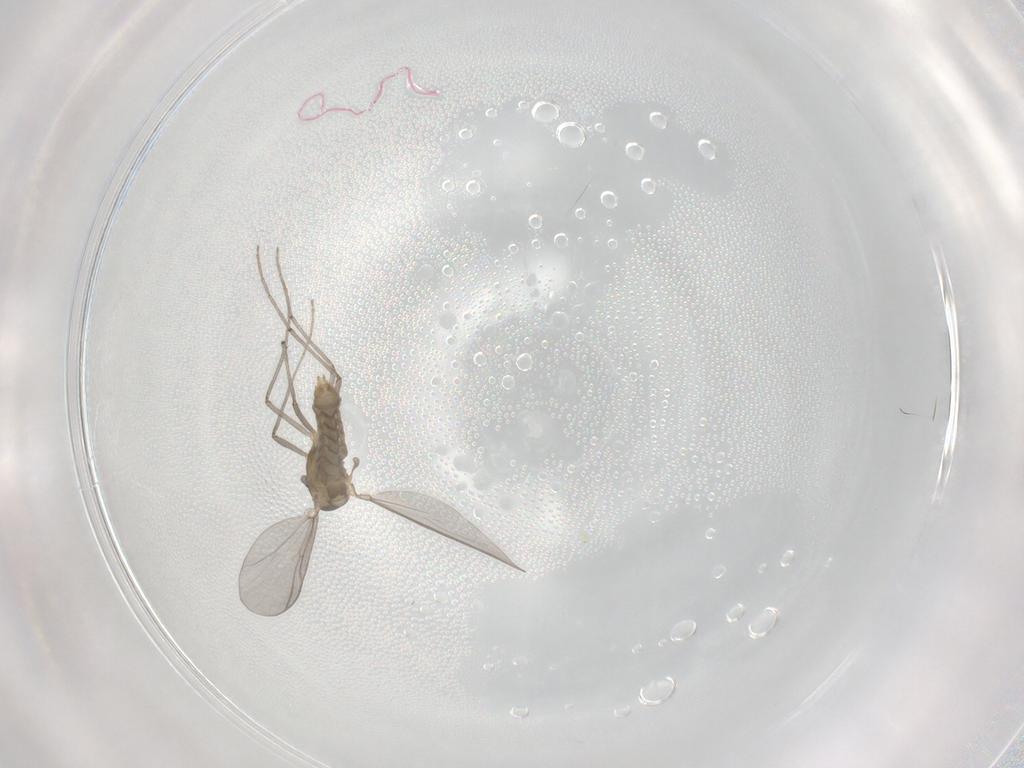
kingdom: Animalia
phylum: Arthropoda
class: Insecta
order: Diptera
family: Chironomidae
